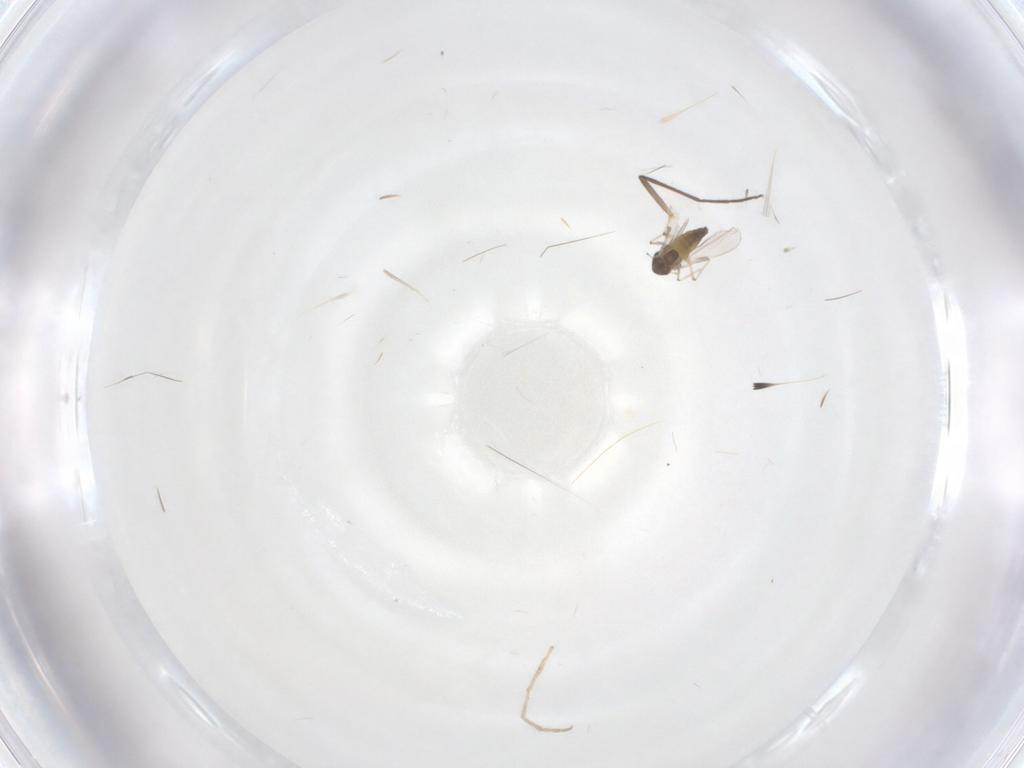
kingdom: Animalia
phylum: Arthropoda
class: Insecta
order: Diptera
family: Chironomidae
